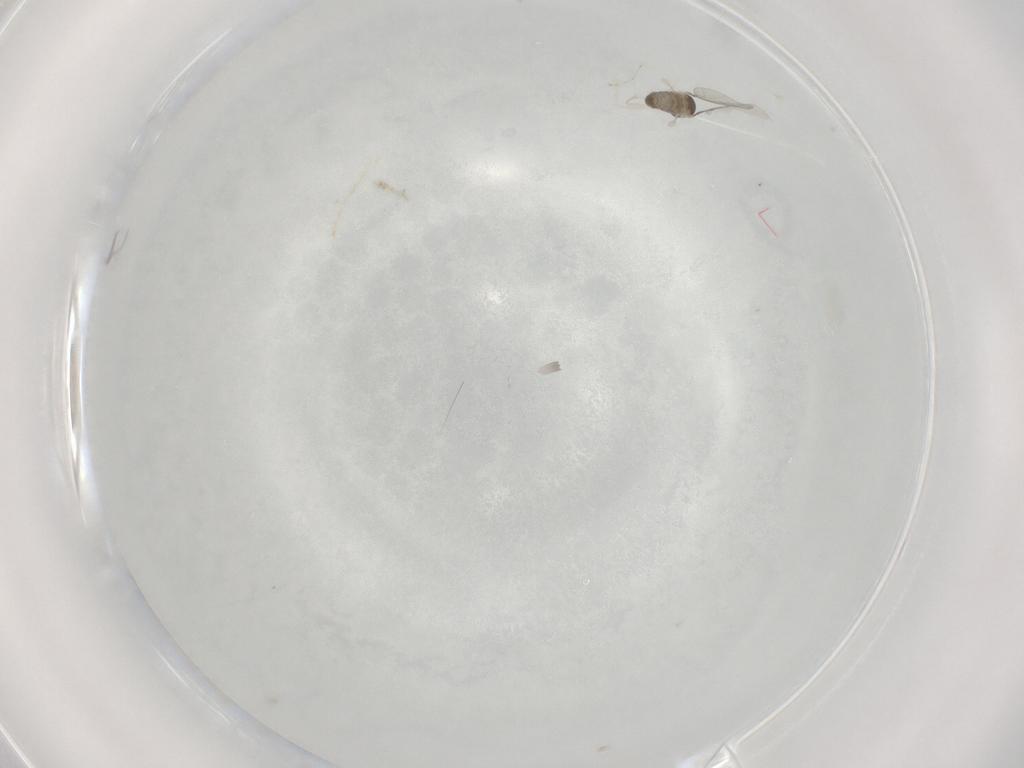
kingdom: Animalia
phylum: Arthropoda
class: Insecta
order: Diptera
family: Cecidomyiidae
